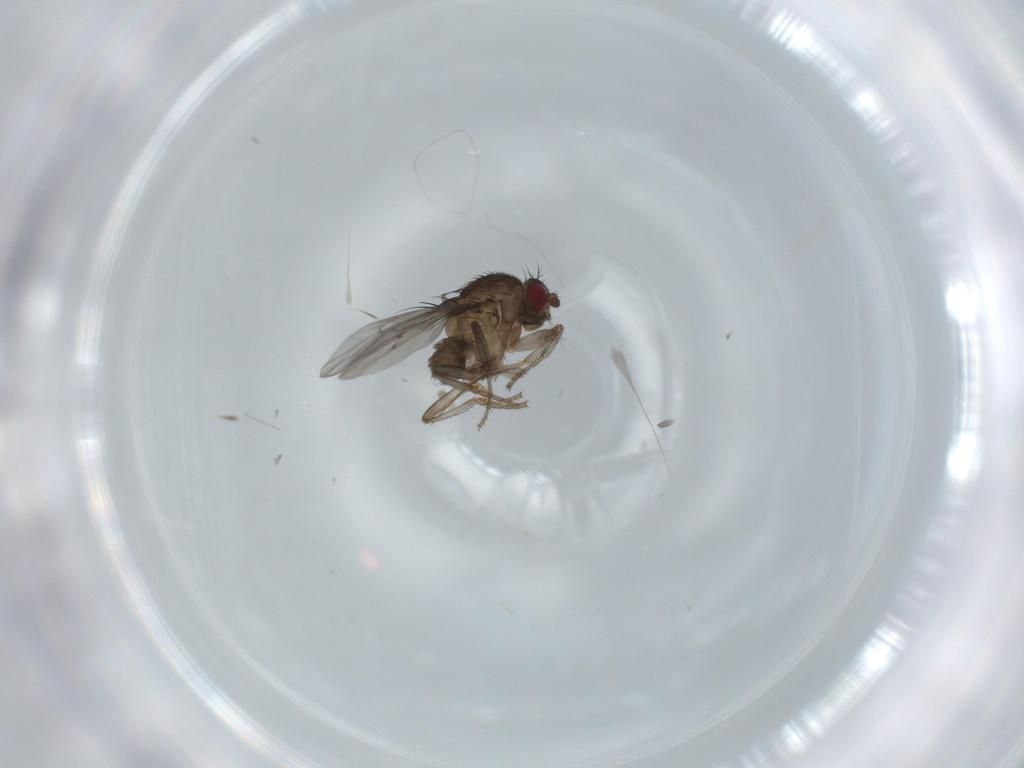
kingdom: Animalia
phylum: Arthropoda
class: Insecta
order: Diptera
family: Sphaeroceridae
